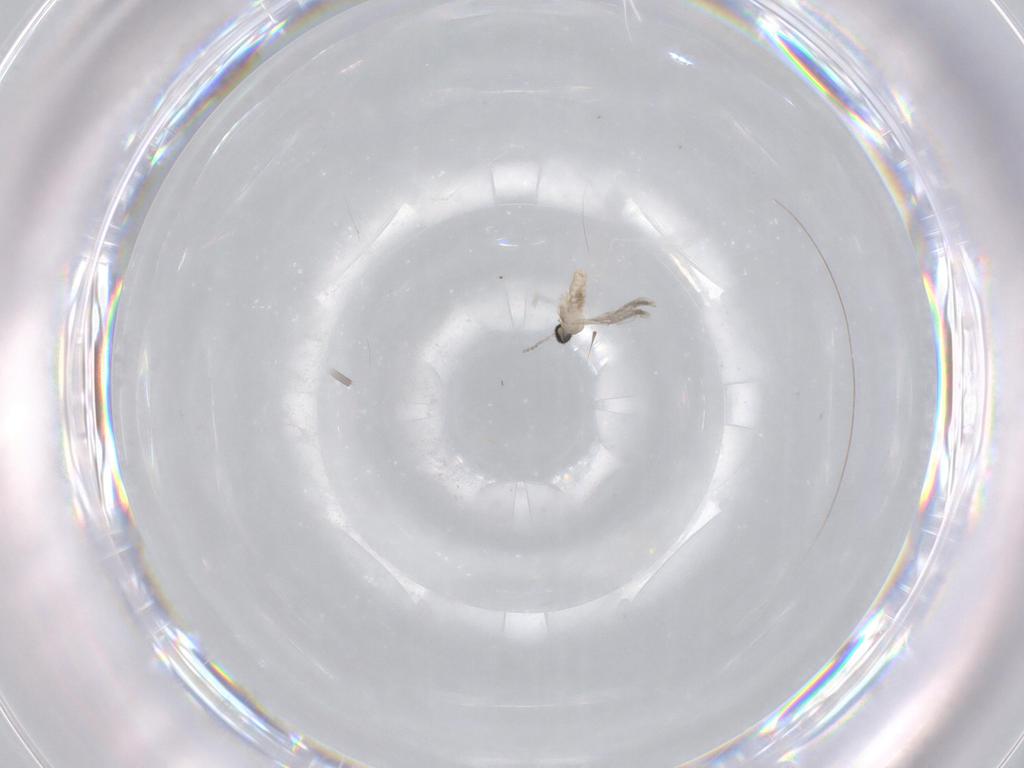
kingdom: Animalia
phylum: Arthropoda
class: Insecta
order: Diptera
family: Cecidomyiidae
